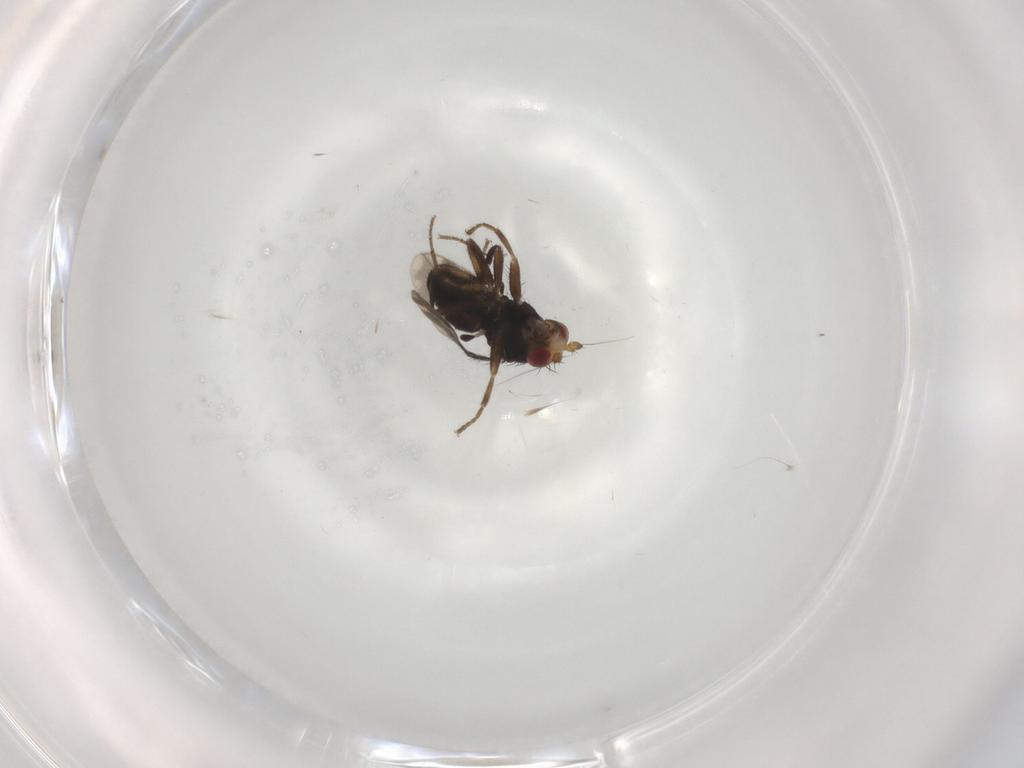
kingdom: Animalia
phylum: Arthropoda
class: Insecta
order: Diptera
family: Sphaeroceridae
